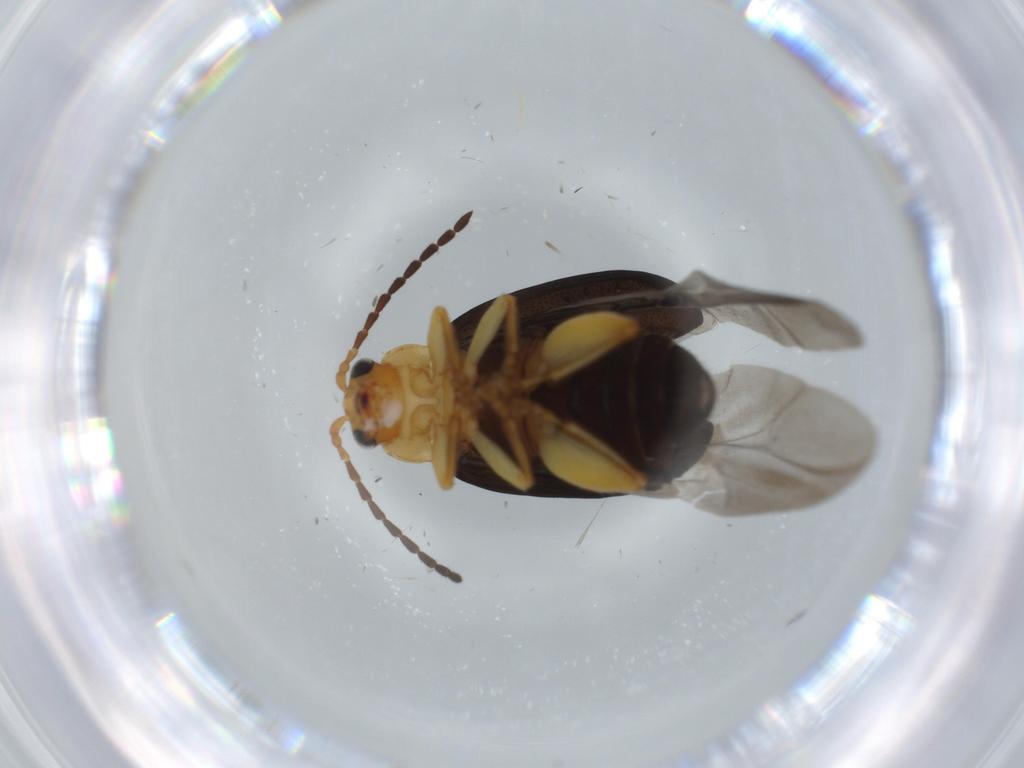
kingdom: Animalia
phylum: Arthropoda
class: Insecta
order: Coleoptera
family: Chrysomelidae
